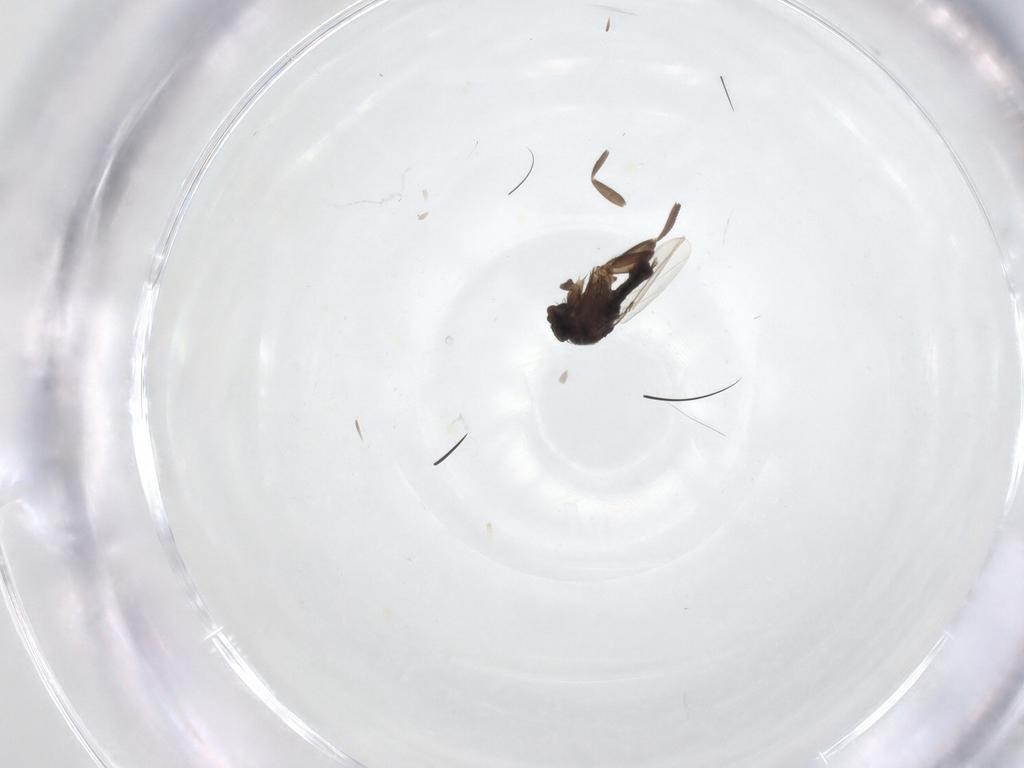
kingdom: Animalia
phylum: Arthropoda
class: Insecta
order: Diptera
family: Phoridae
